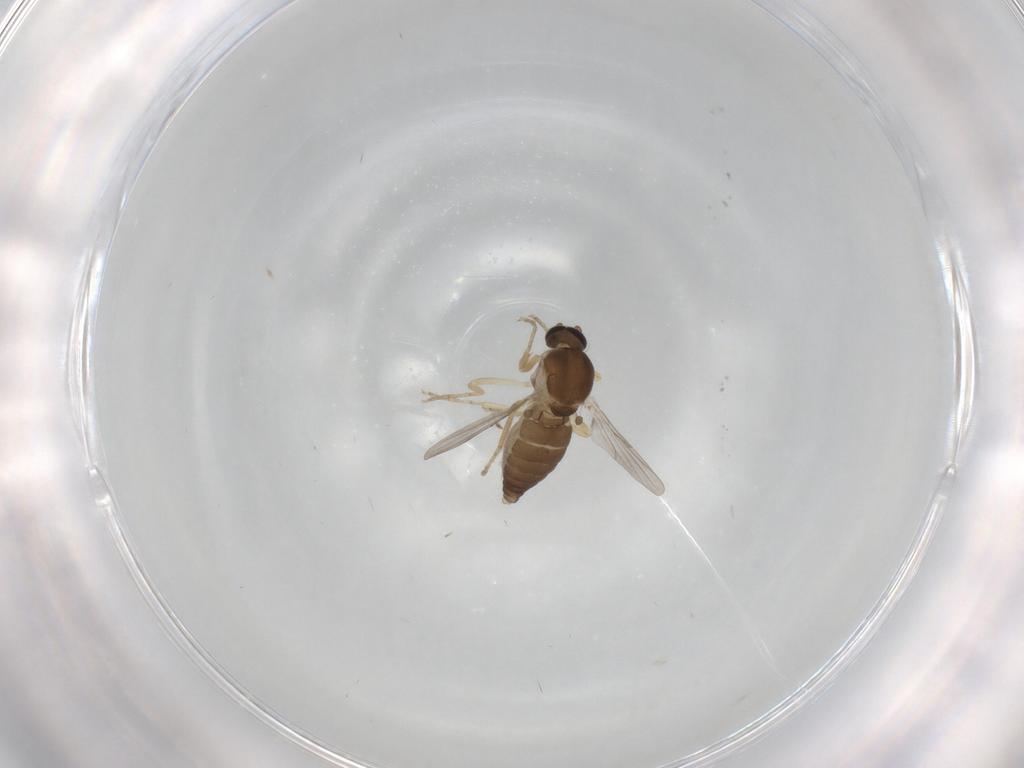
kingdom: Animalia
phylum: Arthropoda
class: Insecta
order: Diptera
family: Ceratopogonidae
